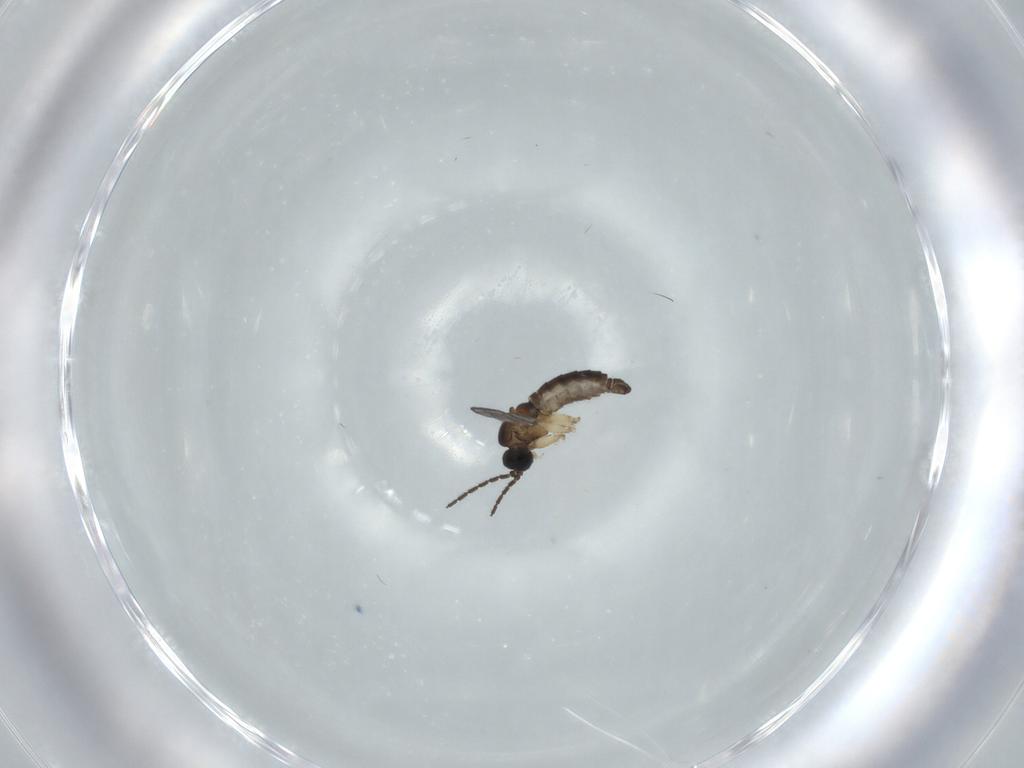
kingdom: Animalia
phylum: Arthropoda
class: Insecta
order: Diptera
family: Sciaridae
